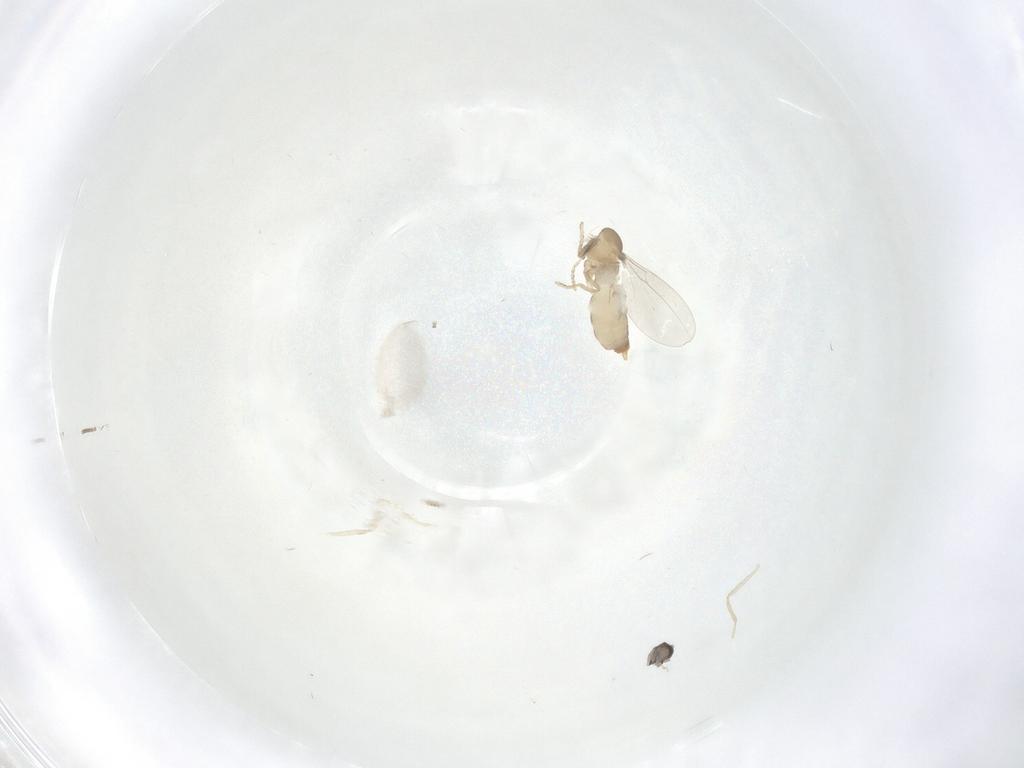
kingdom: Animalia
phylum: Arthropoda
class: Insecta
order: Diptera
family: Cecidomyiidae
